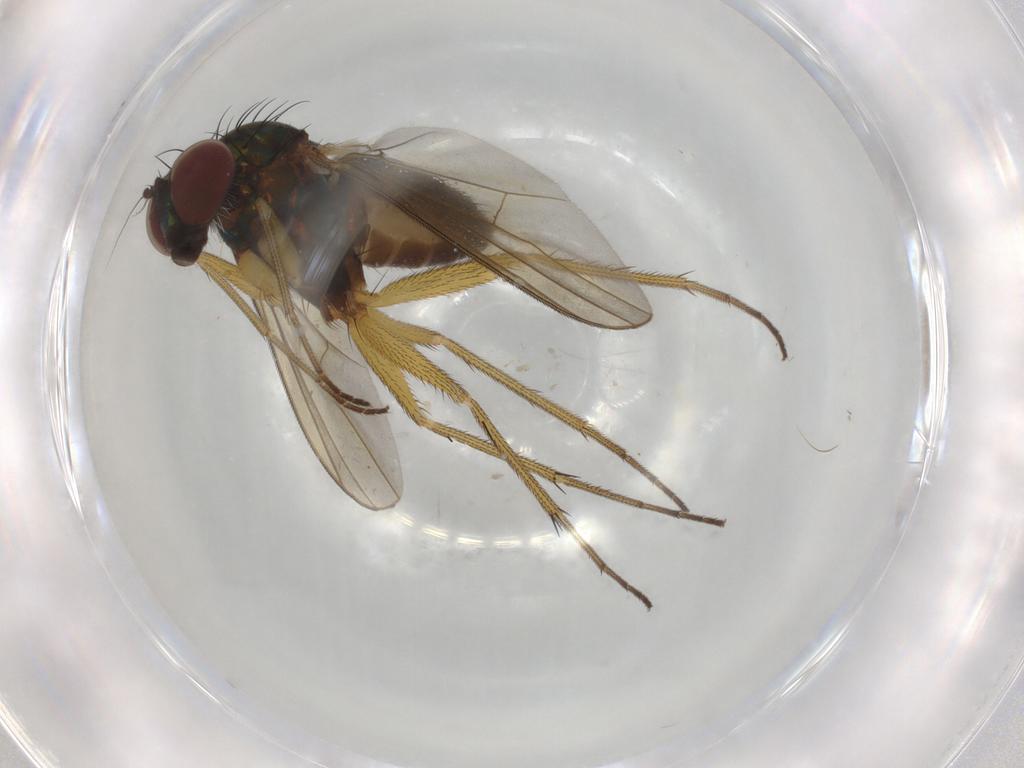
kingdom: Animalia
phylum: Arthropoda
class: Insecta
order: Diptera
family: Dolichopodidae
